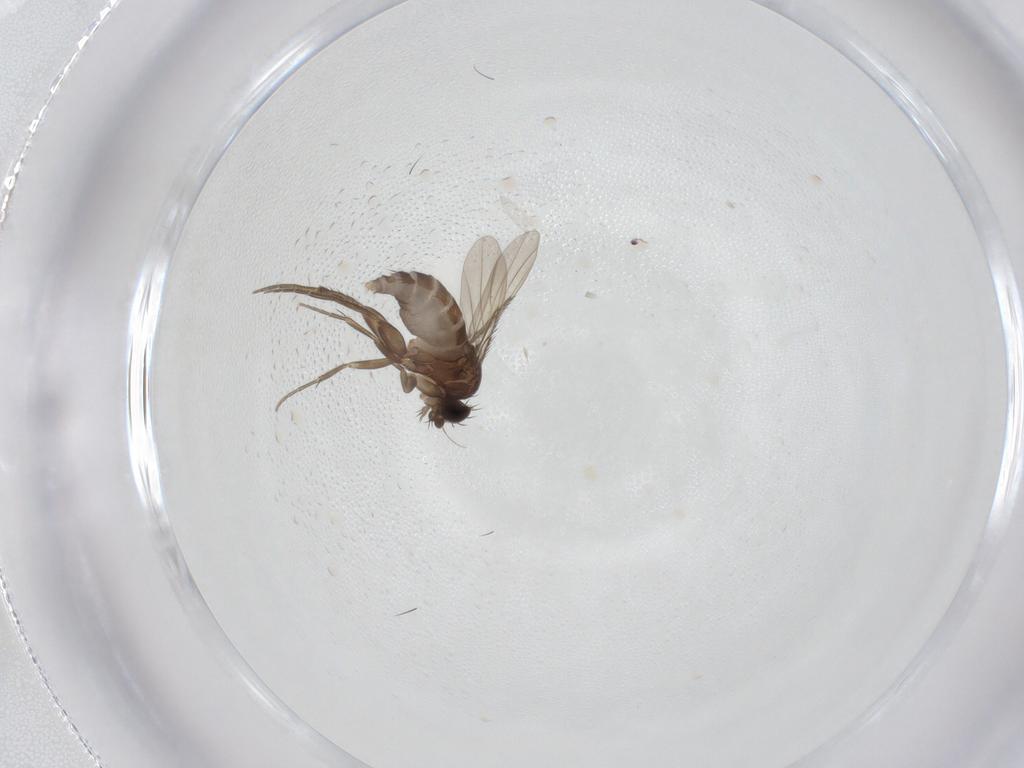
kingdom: Animalia
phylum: Arthropoda
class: Insecta
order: Diptera
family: Phoridae
